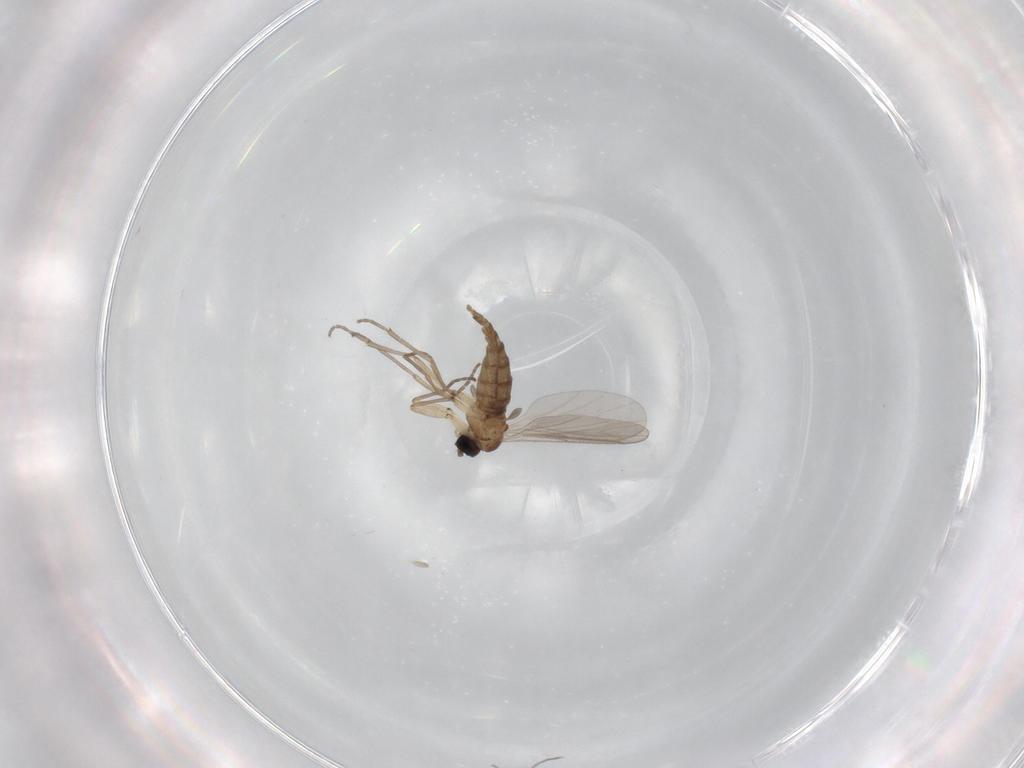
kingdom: Animalia
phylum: Arthropoda
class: Insecta
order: Diptera
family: Sciaridae
